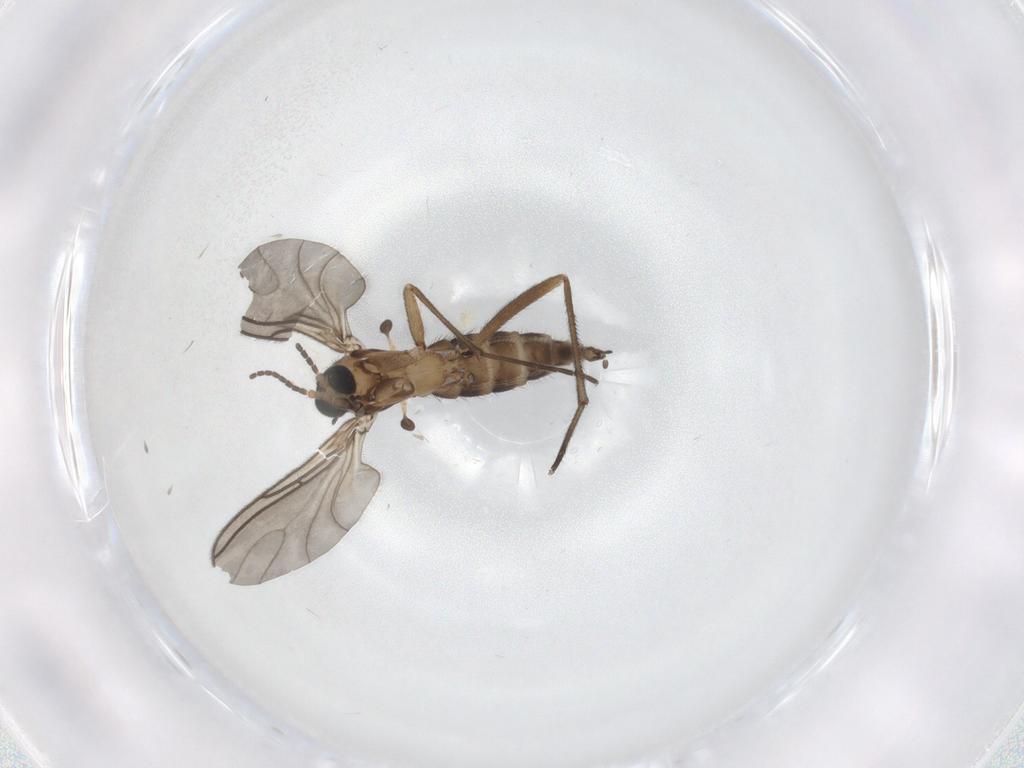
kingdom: Animalia
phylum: Arthropoda
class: Insecta
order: Diptera
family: Sciaridae
